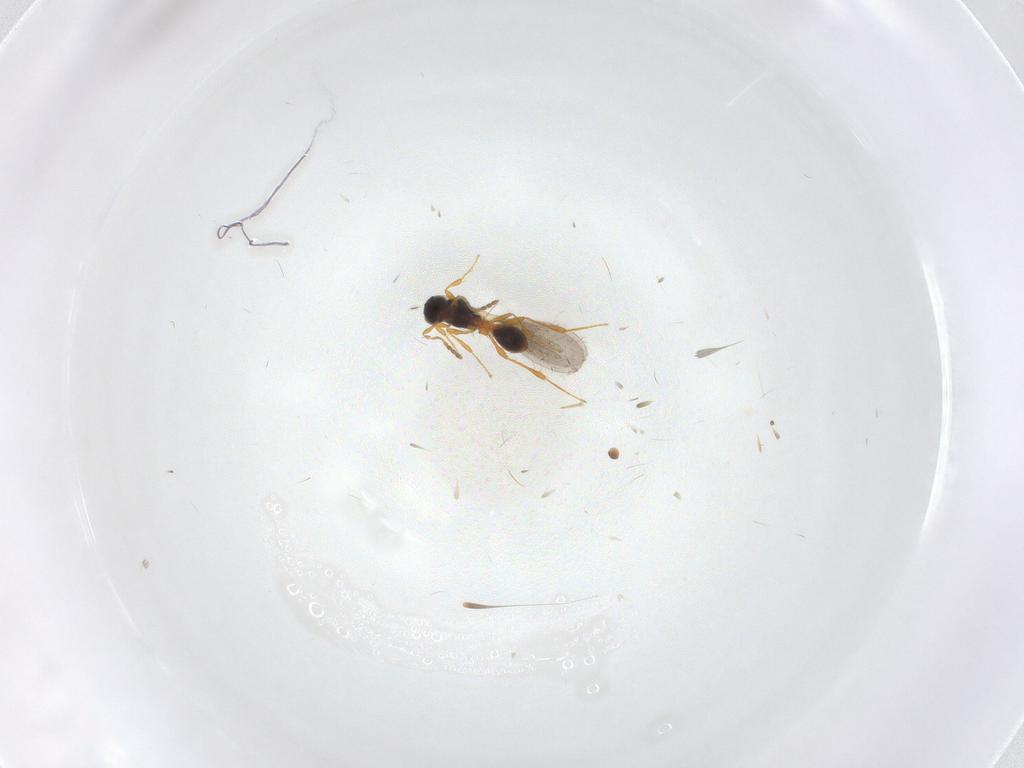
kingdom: Animalia
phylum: Arthropoda
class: Insecta
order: Hymenoptera
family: Platygastridae
